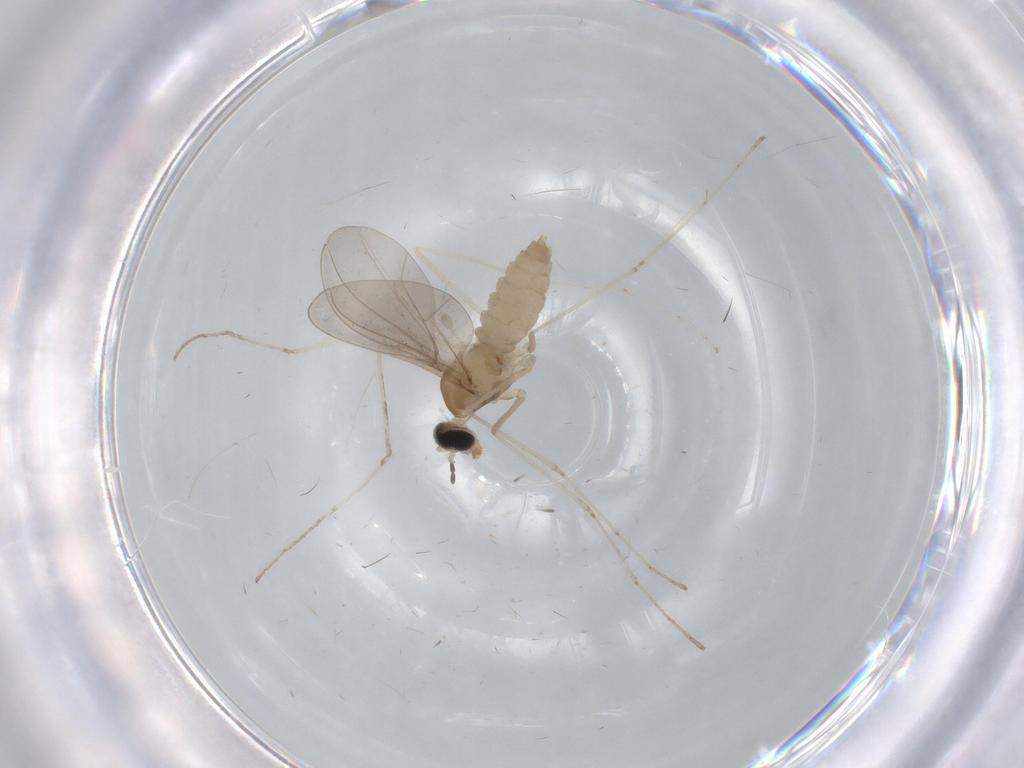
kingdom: Animalia
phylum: Arthropoda
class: Insecta
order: Diptera
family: Cecidomyiidae
